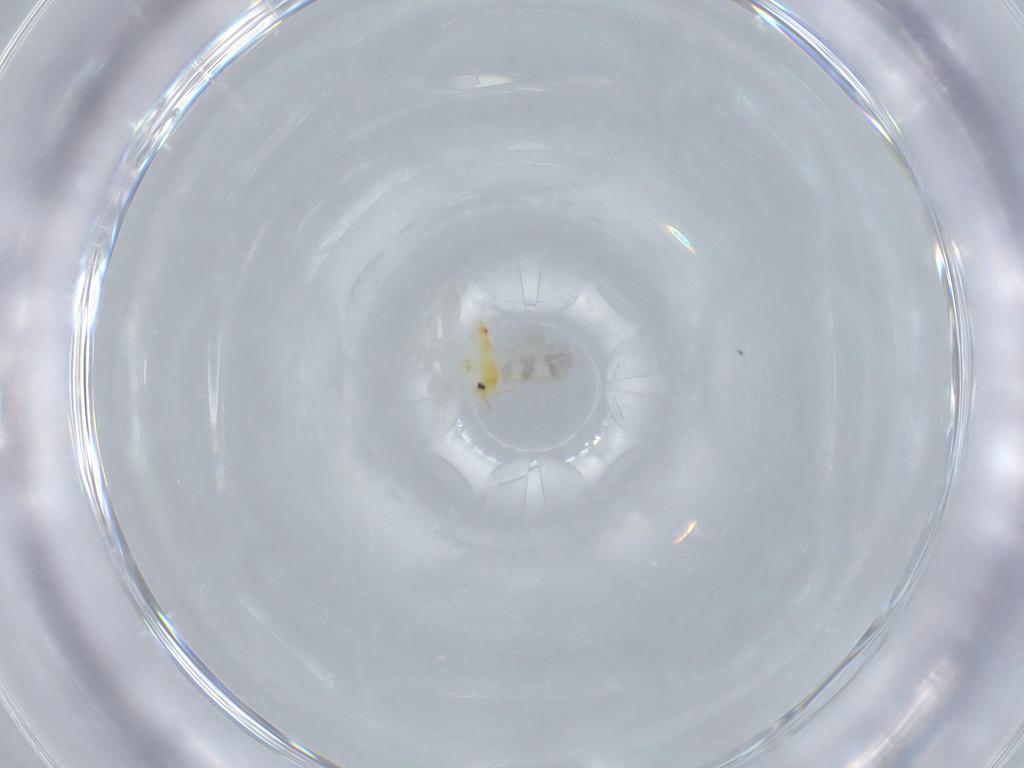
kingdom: Animalia
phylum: Arthropoda
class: Insecta
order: Hemiptera
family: Aleyrodidae
